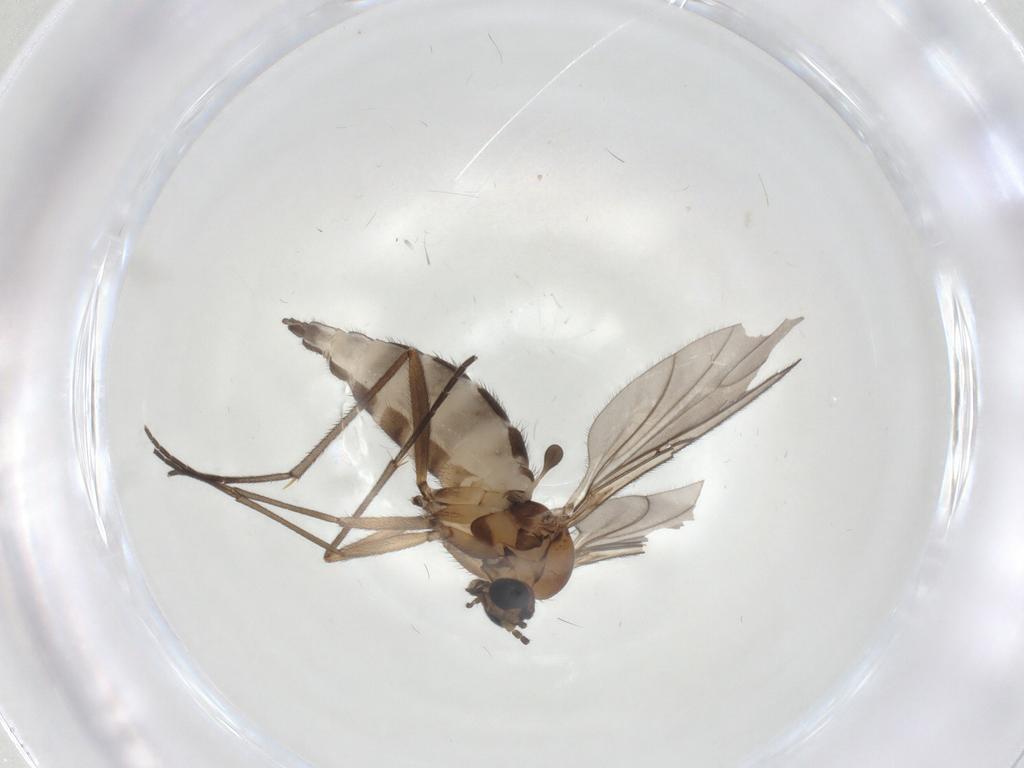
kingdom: Animalia
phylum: Arthropoda
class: Insecta
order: Diptera
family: Sciaridae
